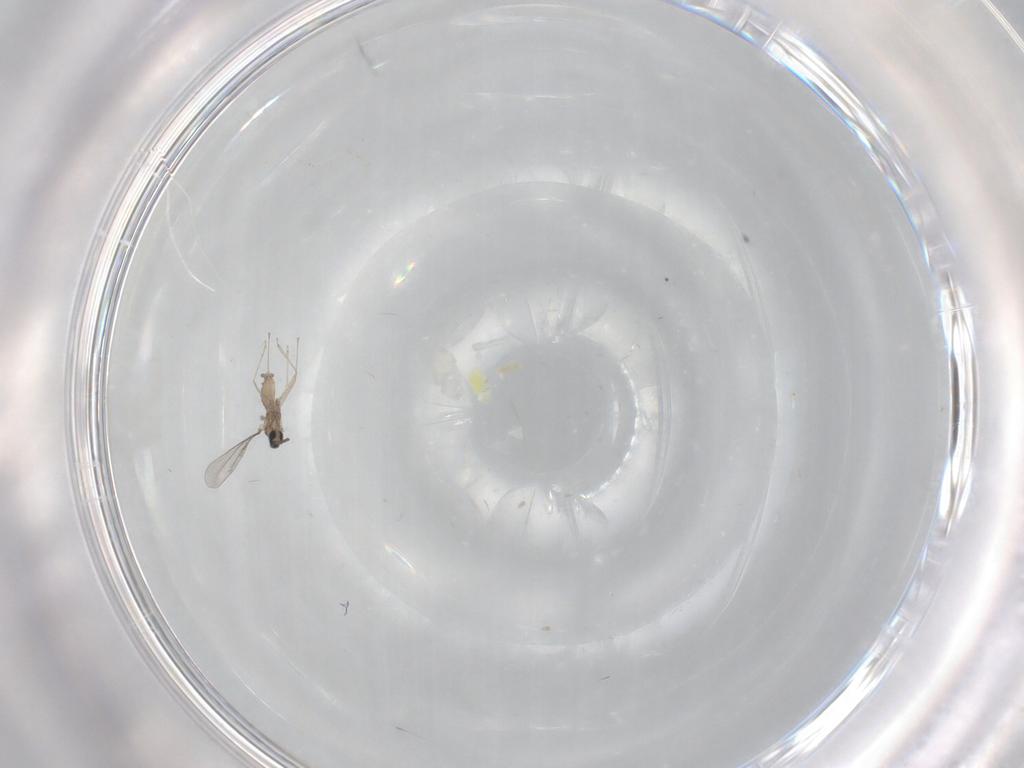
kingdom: Animalia
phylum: Arthropoda
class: Insecta
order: Diptera
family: Cecidomyiidae
